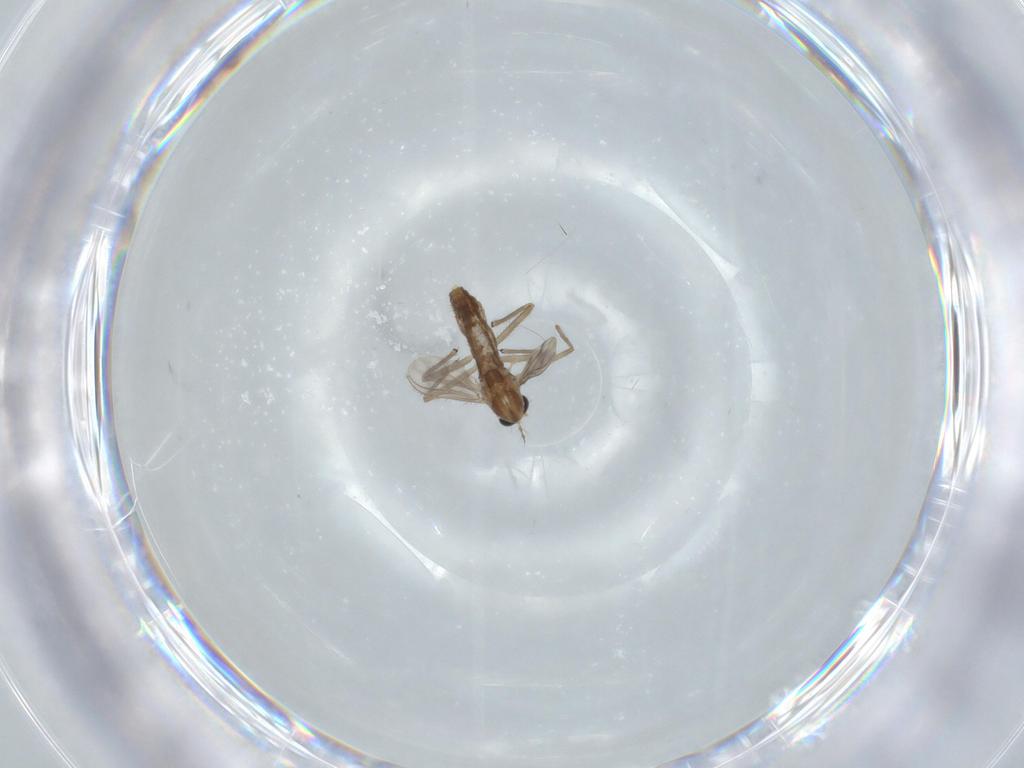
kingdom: Animalia
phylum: Arthropoda
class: Insecta
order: Diptera
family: Chironomidae
